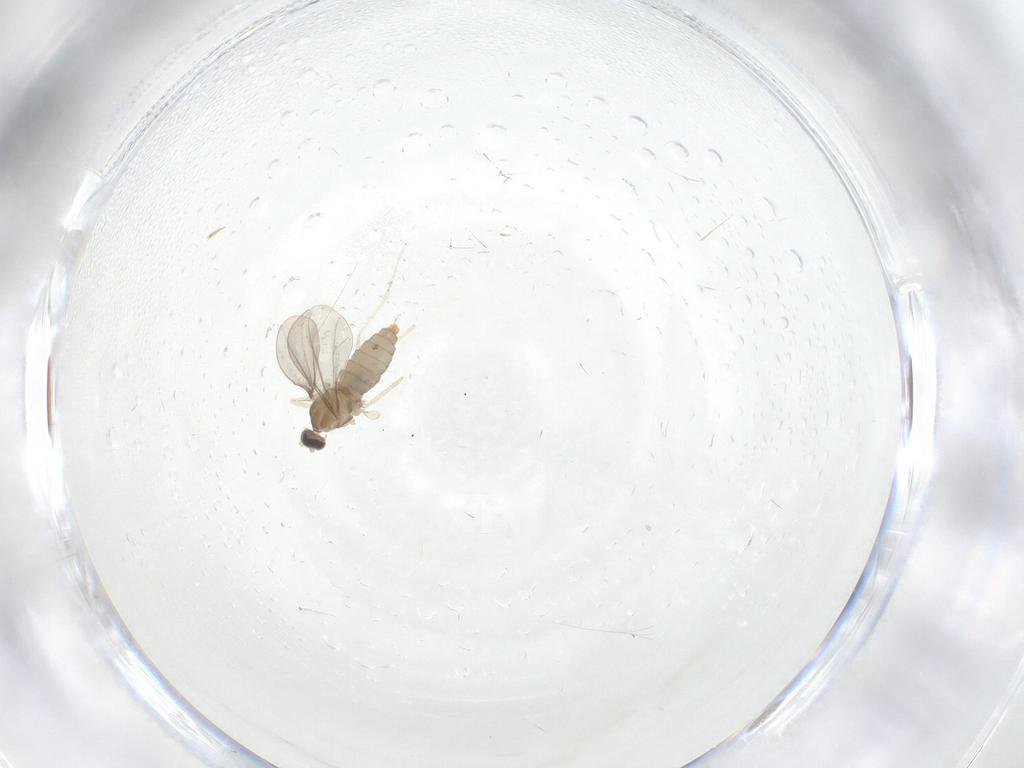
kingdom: Animalia
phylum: Arthropoda
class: Insecta
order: Diptera
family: Cecidomyiidae
